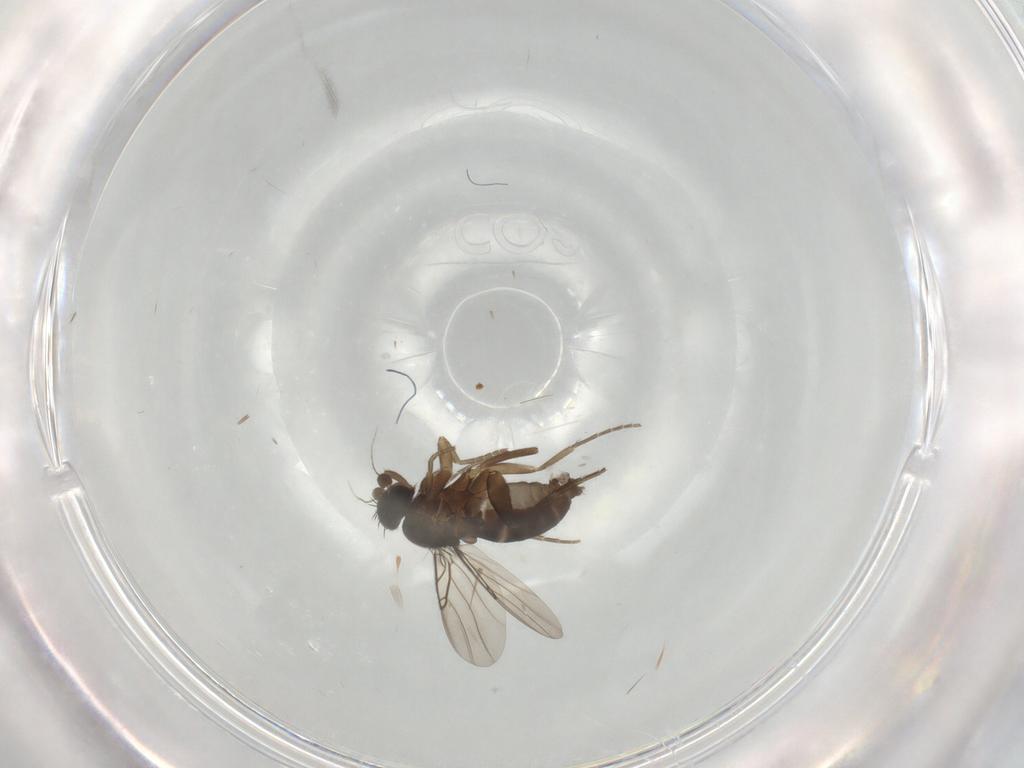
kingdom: Animalia
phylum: Arthropoda
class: Insecta
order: Diptera
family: Phoridae
